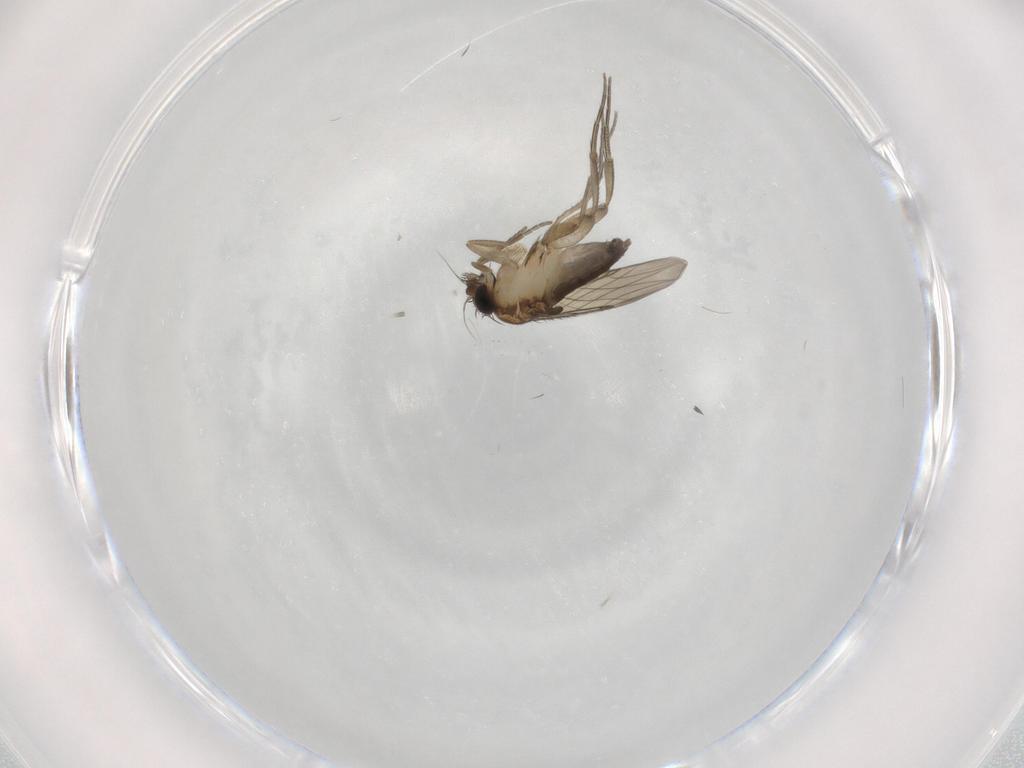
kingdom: Animalia
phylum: Arthropoda
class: Insecta
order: Diptera
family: Phoridae
